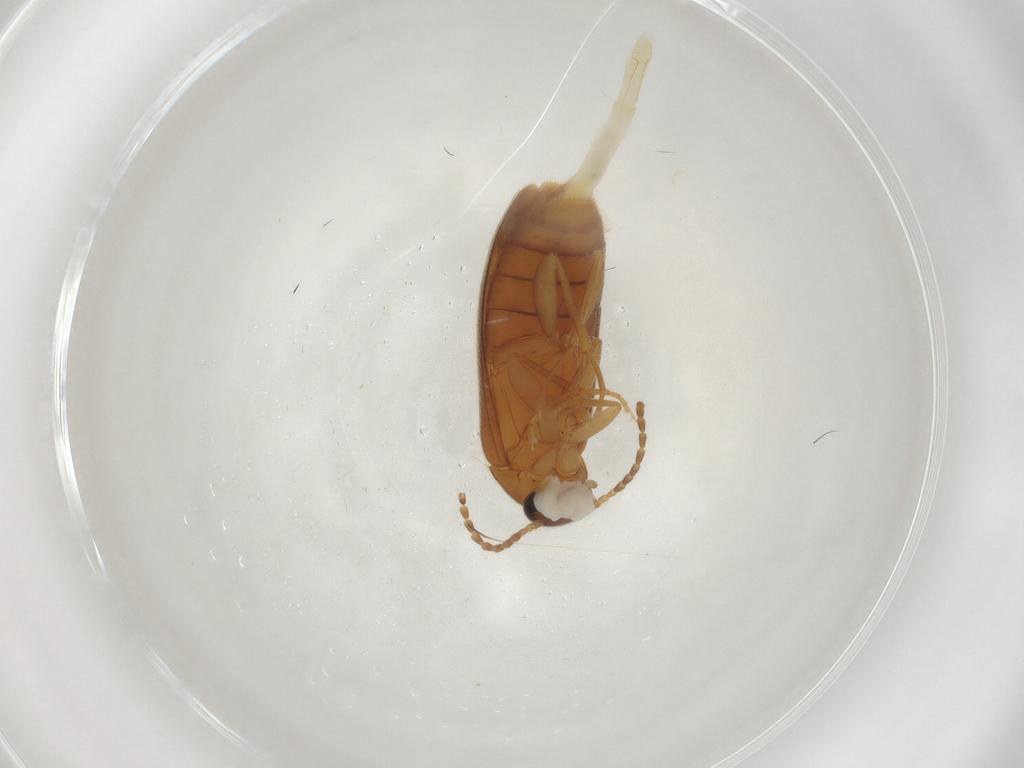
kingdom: Animalia
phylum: Arthropoda
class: Insecta
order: Coleoptera
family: Scraptiidae
